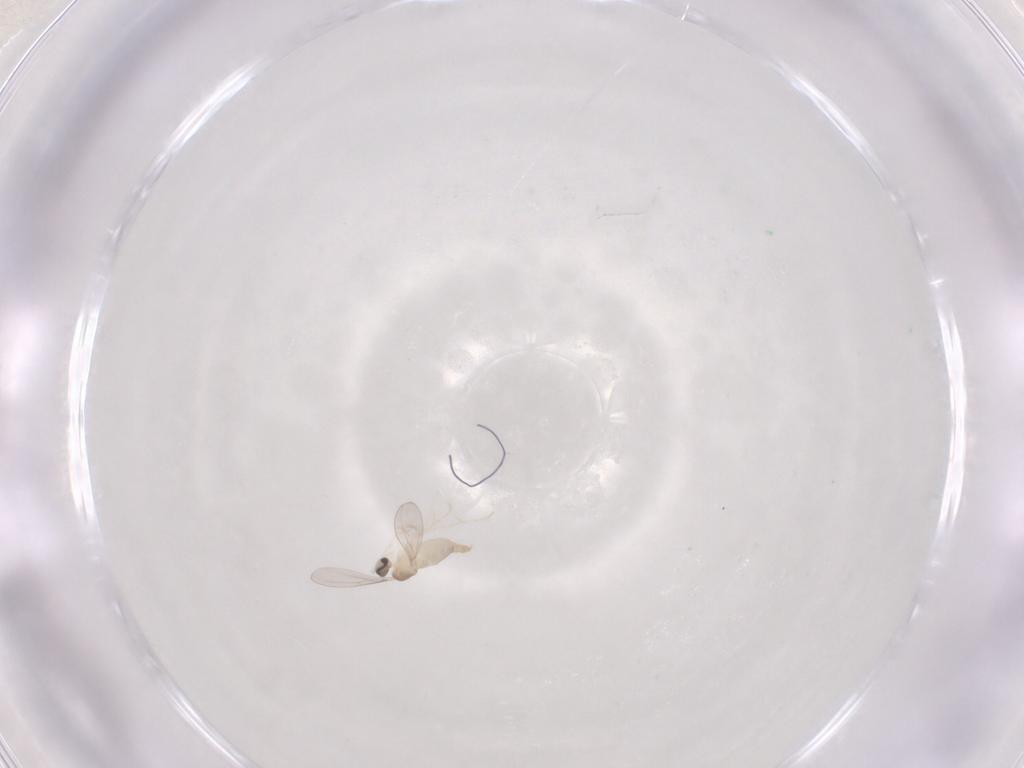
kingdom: Animalia
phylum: Arthropoda
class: Insecta
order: Diptera
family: Cecidomyiidae
